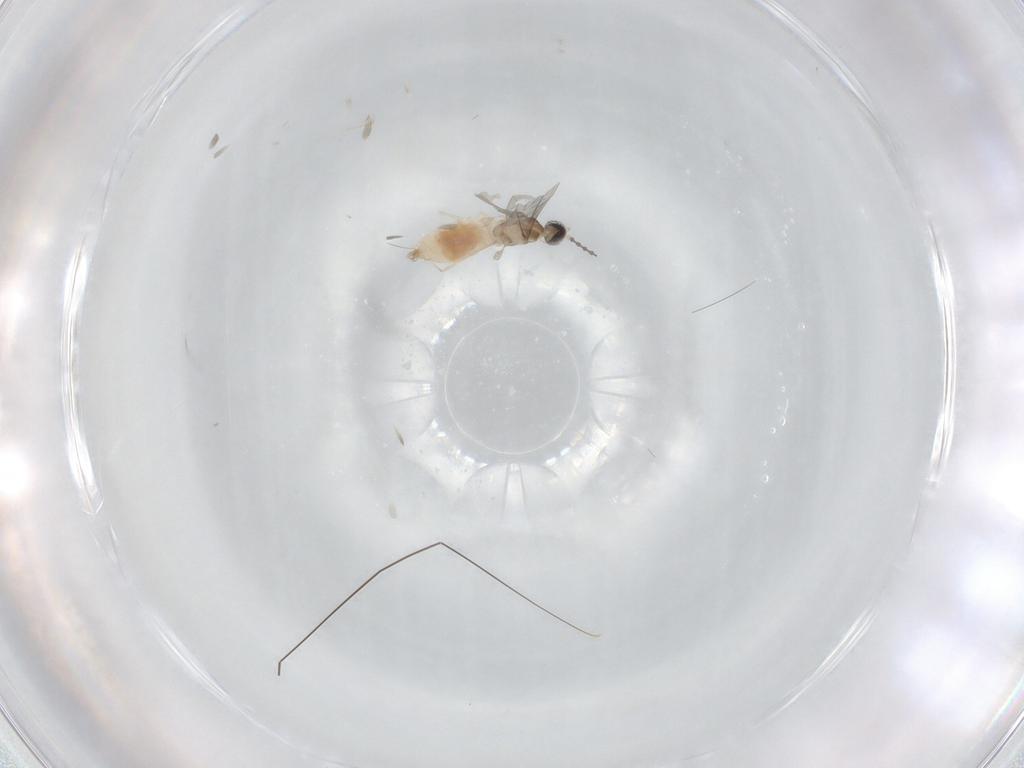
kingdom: Animalia
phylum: Arthropoda
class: Insecta
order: Diptera
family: Cecidomyiidae
